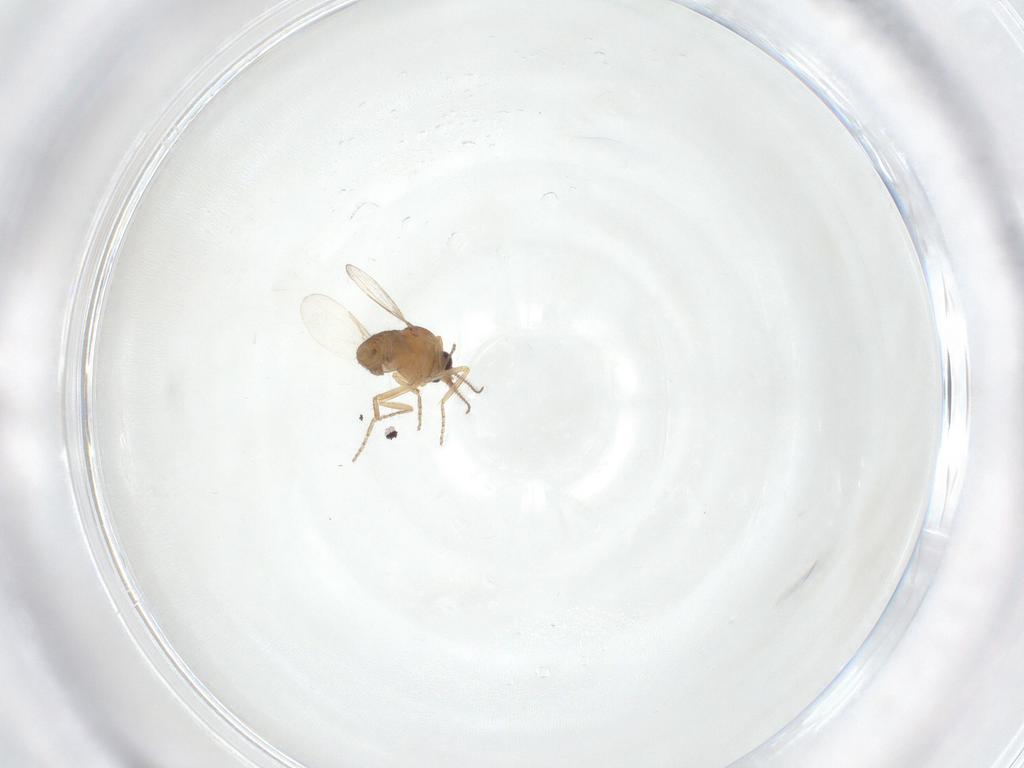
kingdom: Animalia
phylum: Arthropoda
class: Insecta
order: Diptera
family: Ceratopogonidae
